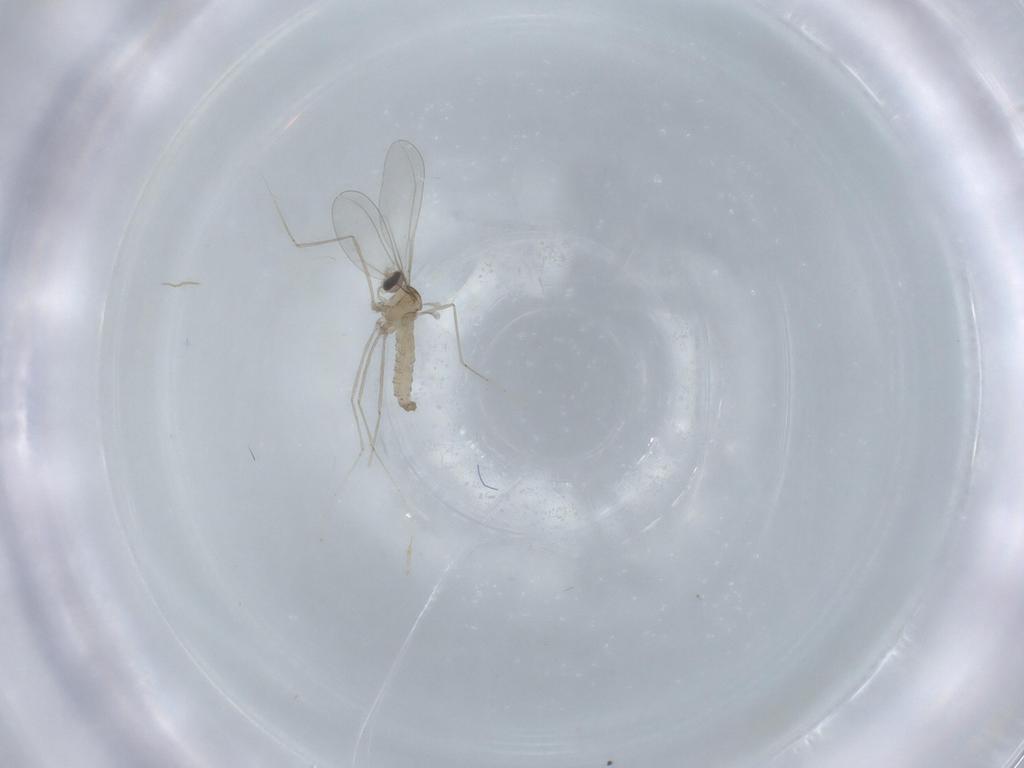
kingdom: Animalia
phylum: Arthropoda
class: Insecta
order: Diptera
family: Cecidomyiidae
